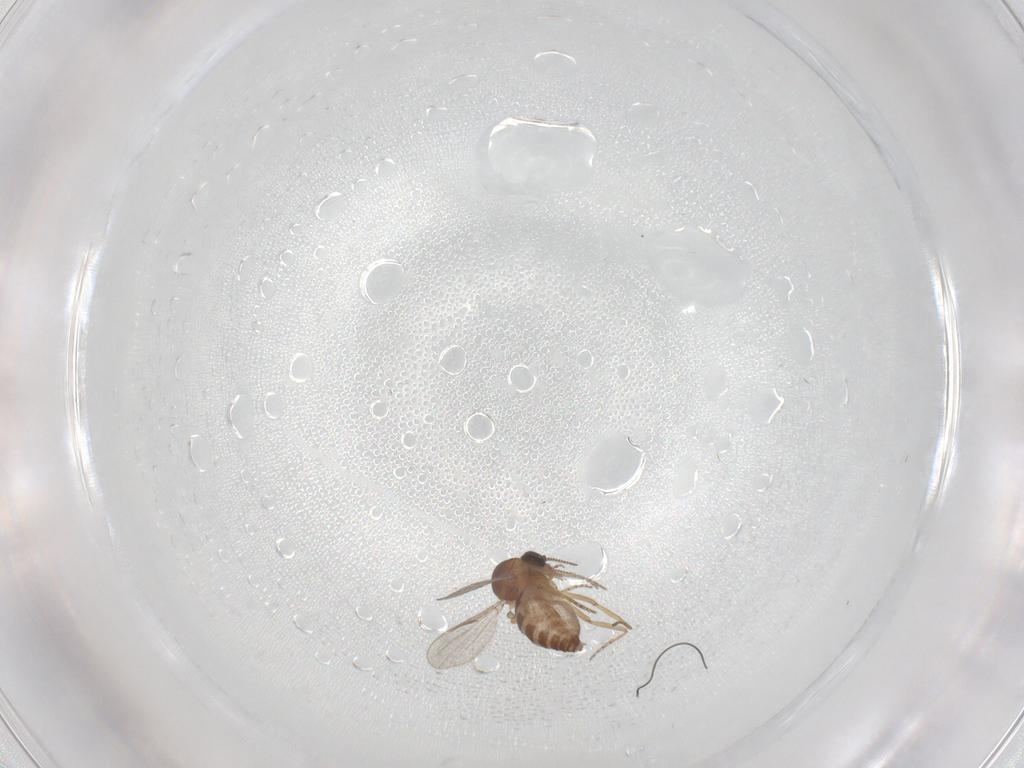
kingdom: Animalia
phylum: Arthropoda
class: Insecta
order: Diptera
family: Ceratopogonidae
